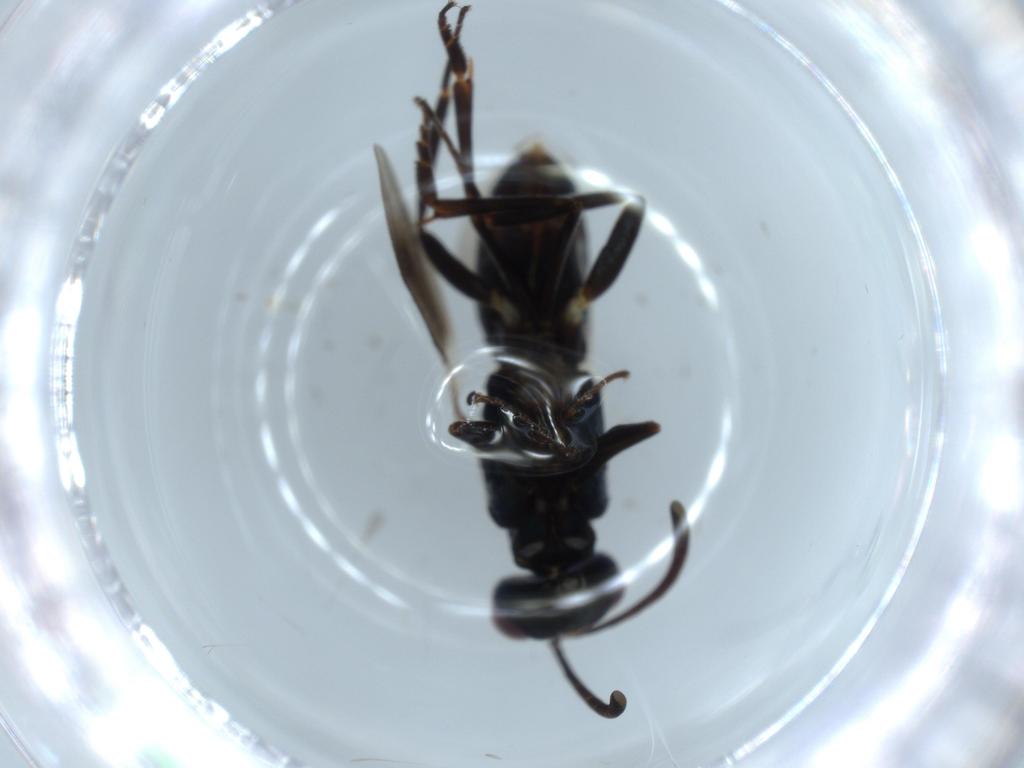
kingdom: Animalia
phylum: Arthropoda
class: Insecta
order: Hymenoptera
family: Eupelmidae
